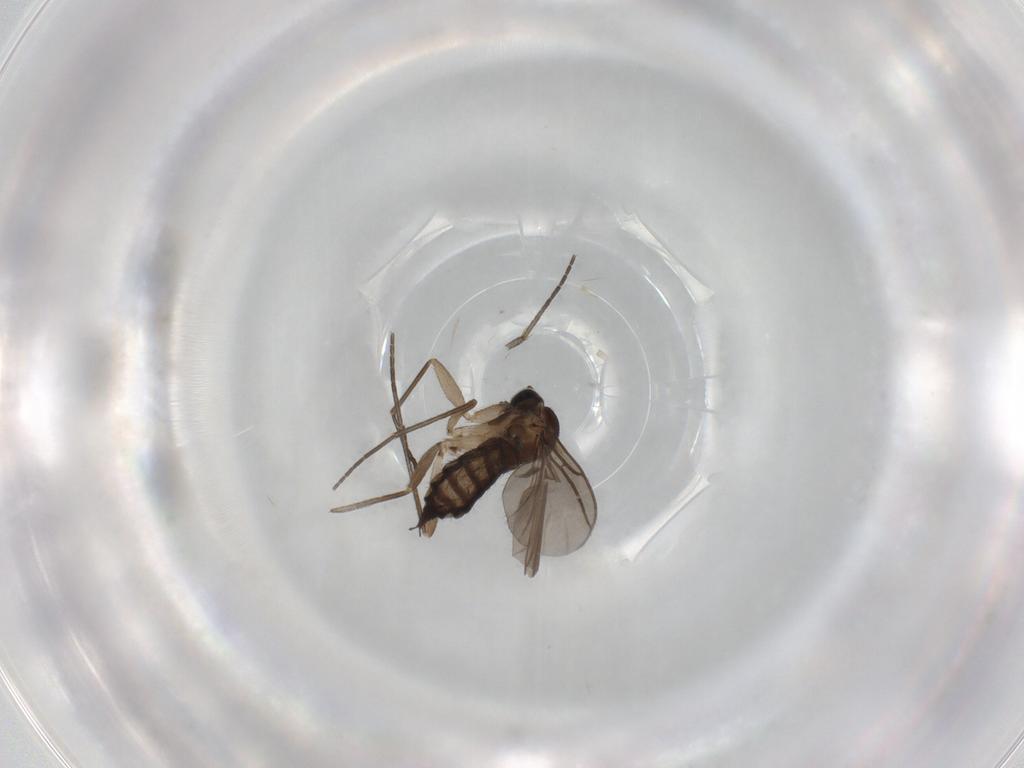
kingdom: Animalia
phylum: Arthropoda
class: Insecta
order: Diptera
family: Sciaridae
